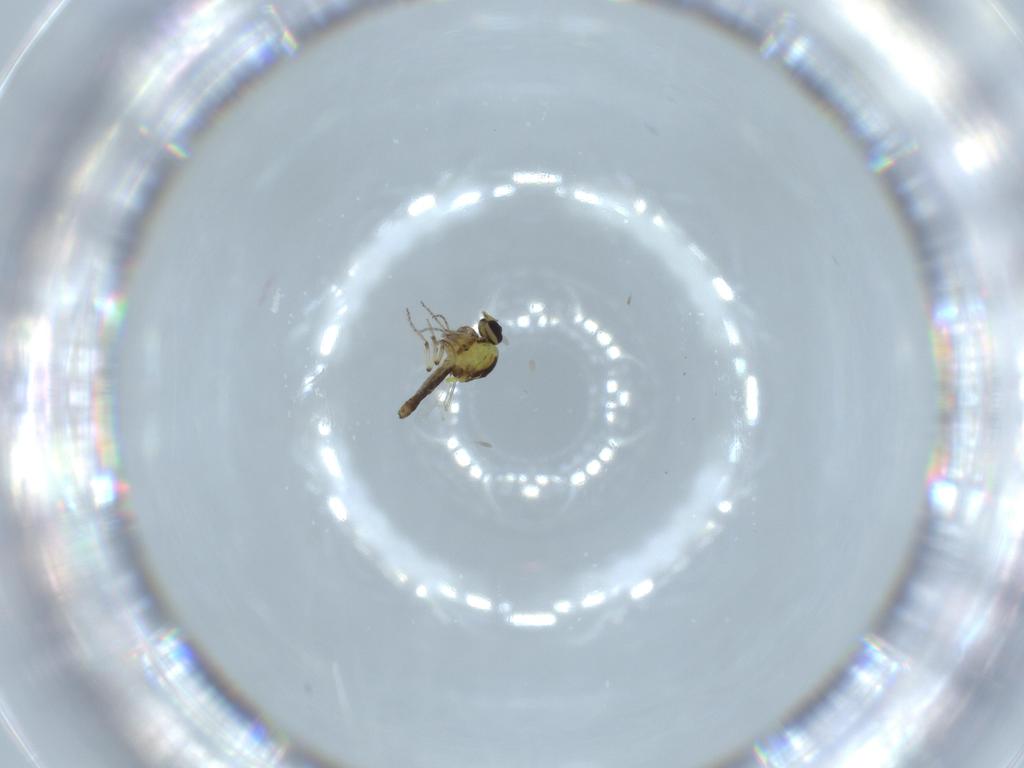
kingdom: Animalia
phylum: Arthropoda
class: Insecta
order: Diptera
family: Ceratopogonidae
